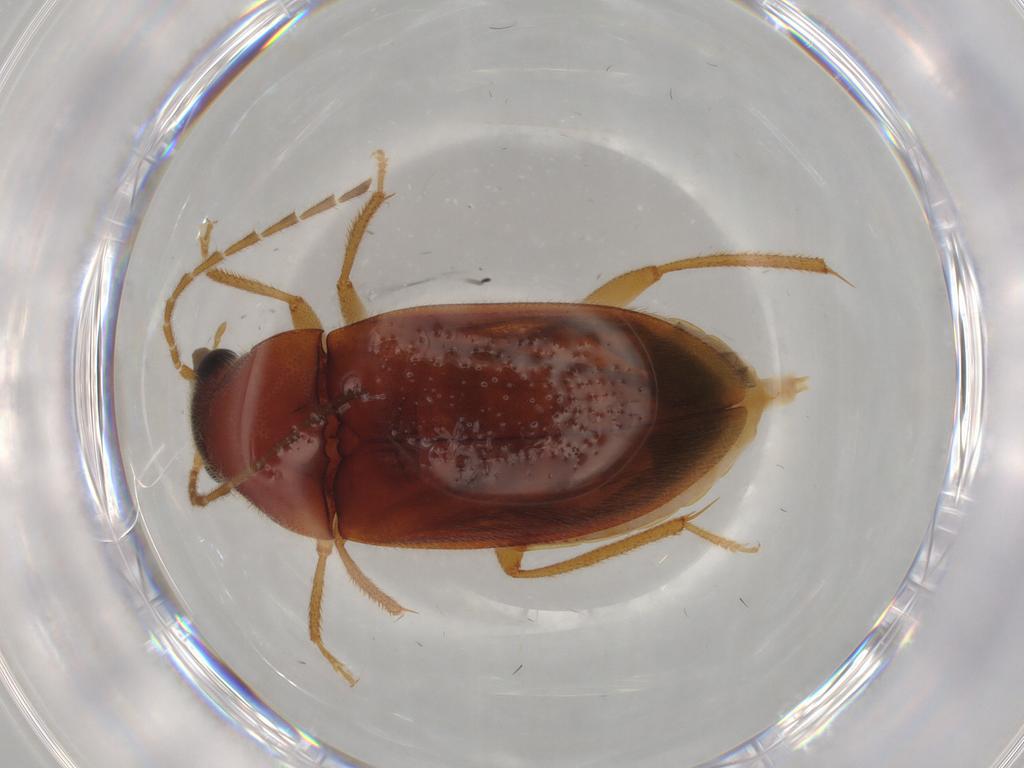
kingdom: Animalia
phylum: Arthropoda
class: Insecta
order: Coleoptera
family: Ptilodactylidae
